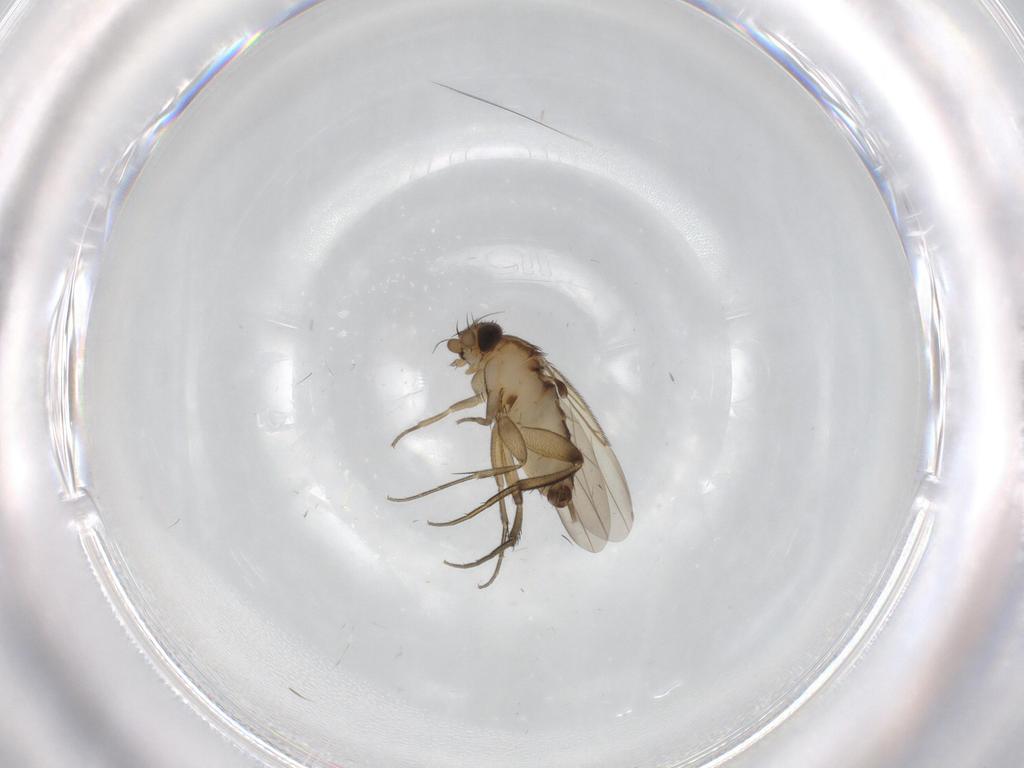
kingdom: Animalia
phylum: Arthropoda
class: Insecta
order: Diptera
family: Phoridae
